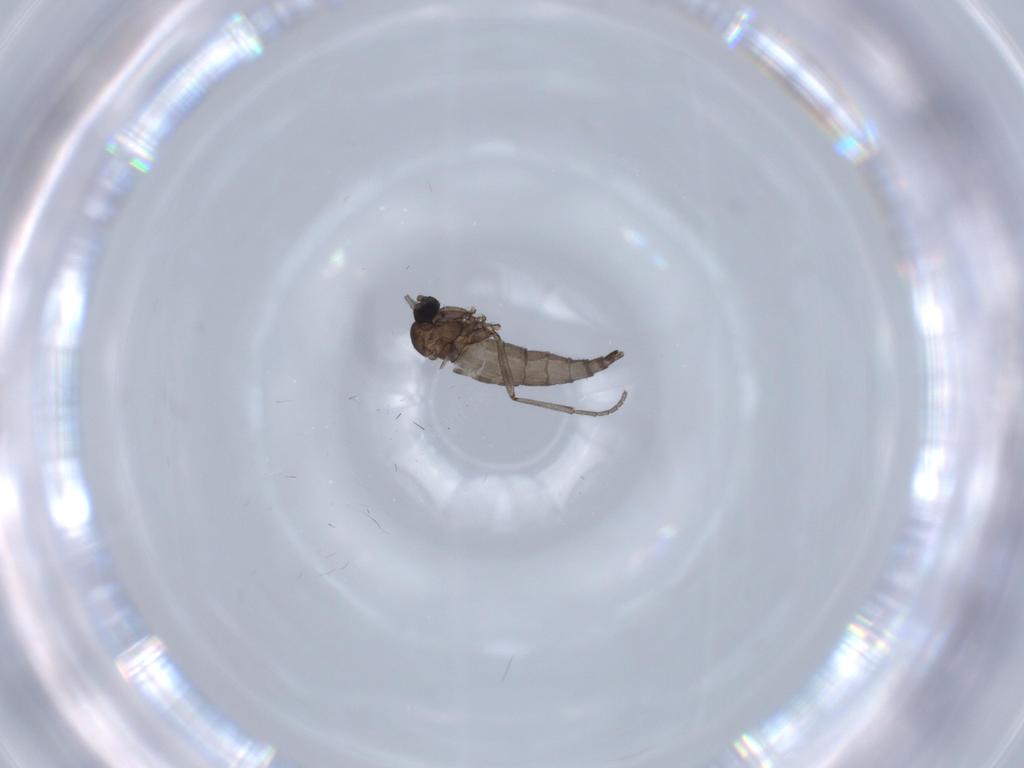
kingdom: Animalia
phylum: Arthropoda
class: Insecta
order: Diptera
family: Sciaridae
